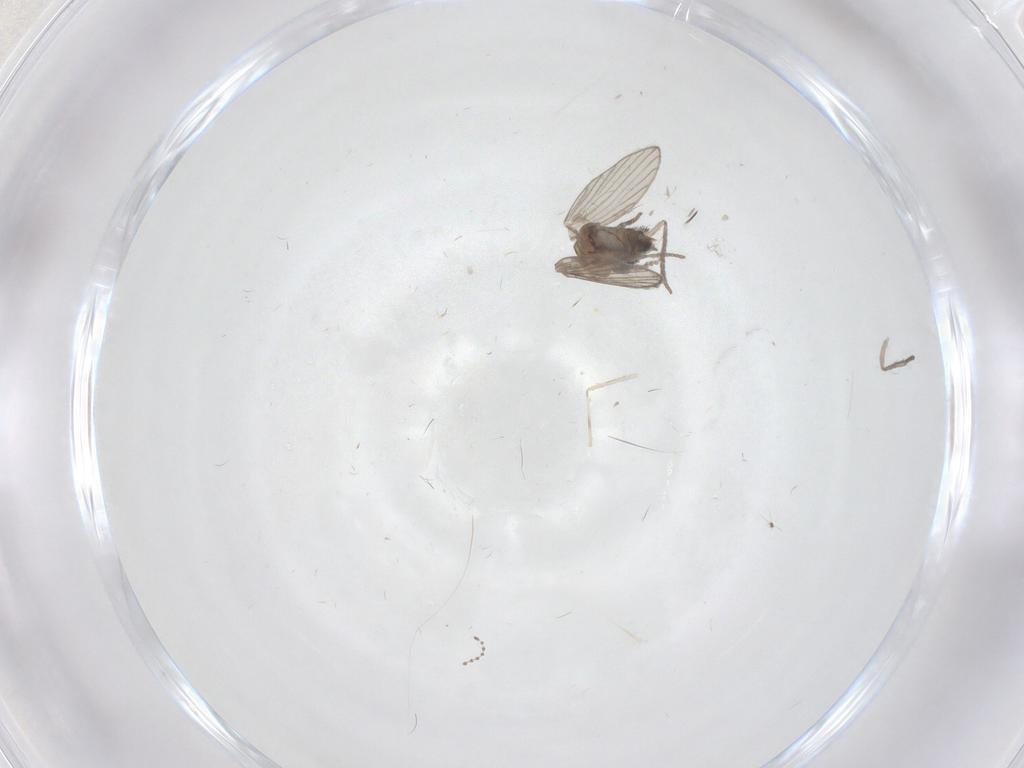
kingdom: Animalia
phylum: Arthropoda
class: Insecta
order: Diptera
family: Psychodidae
